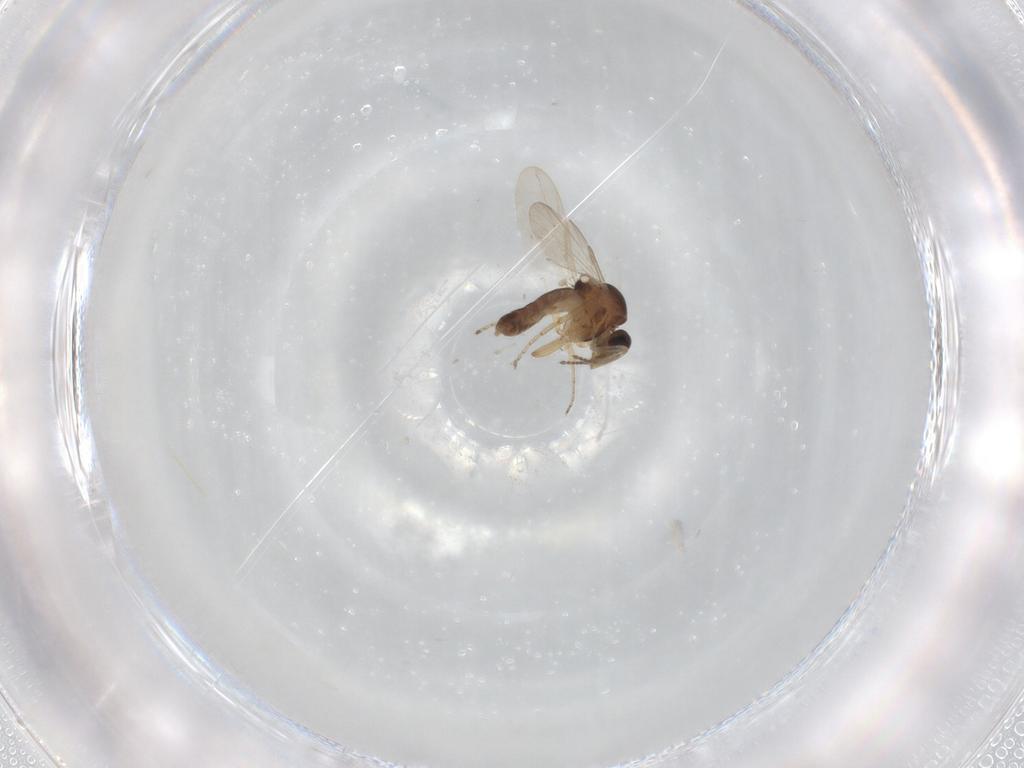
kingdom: Animalia
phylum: Arthropoda
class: Insecta
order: Diptera
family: Ceratopogonidae
